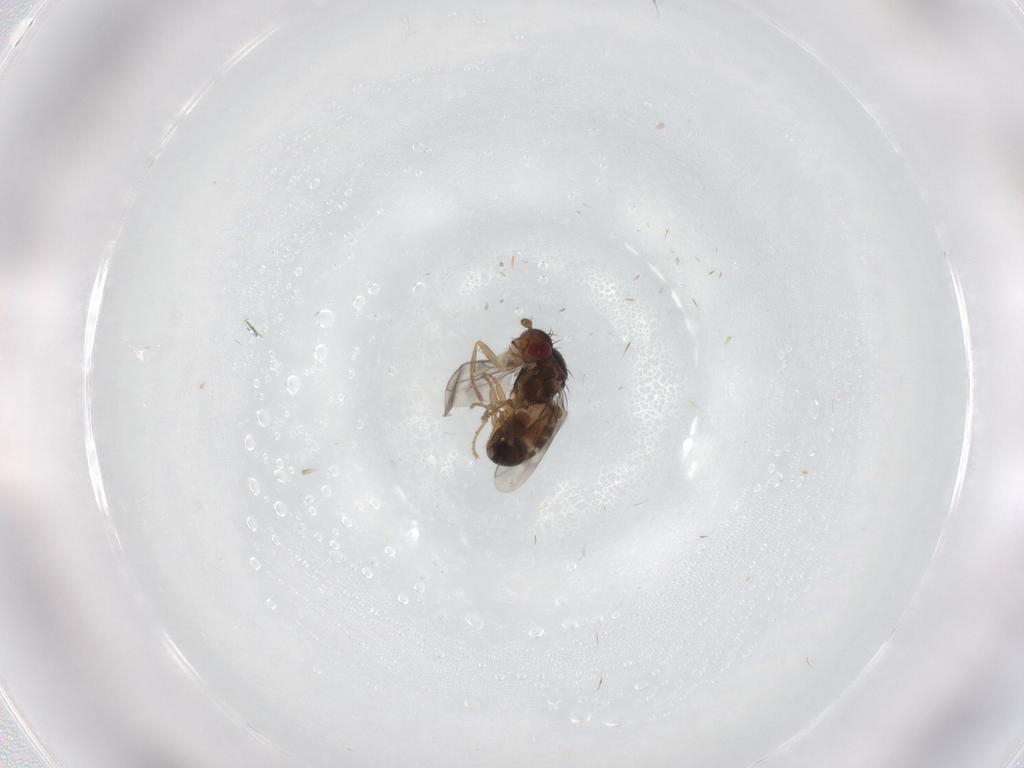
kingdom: Animalia
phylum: Arthropoda
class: Insecta
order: Diptera
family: Sphaeroceridae
